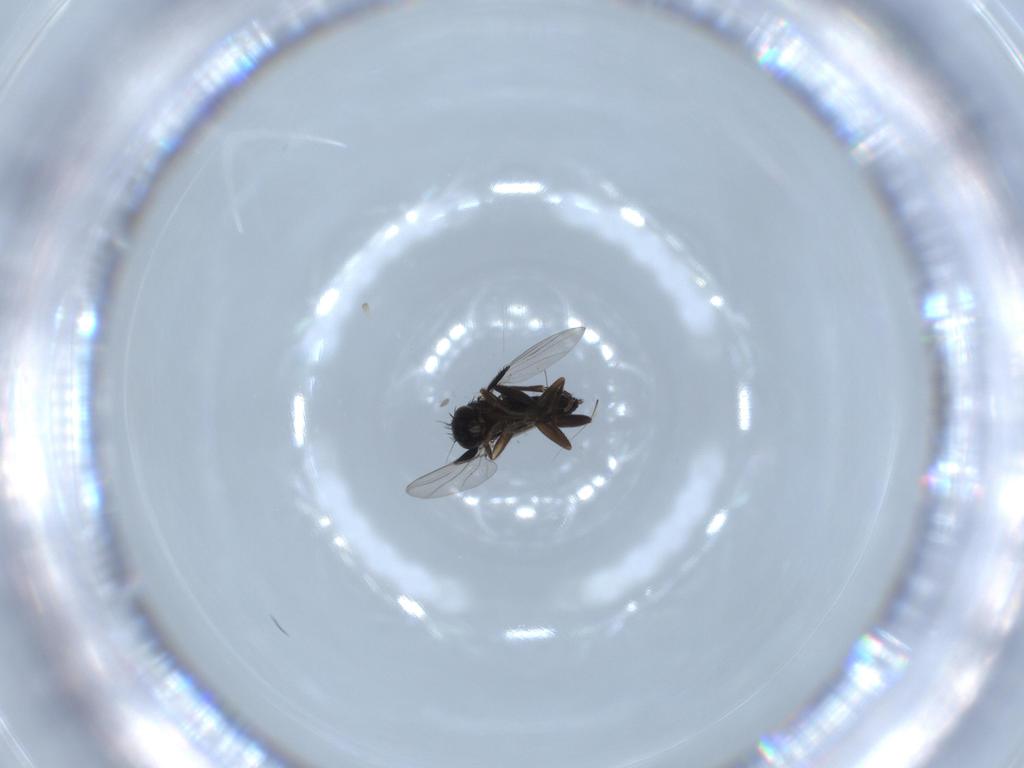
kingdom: Animalia
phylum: Arthropoda
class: Insecta
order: Diptera
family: Phoridae
